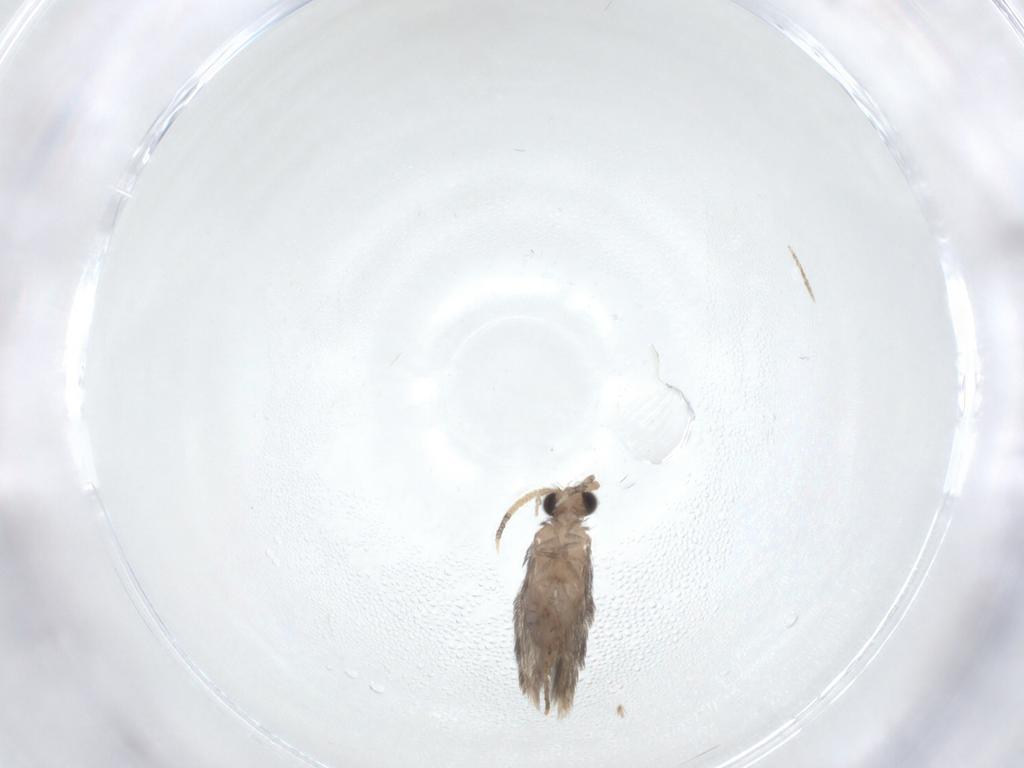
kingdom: Animalia
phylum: Arthropoda
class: Insecta
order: Trichoptera
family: Hydroptilidae
